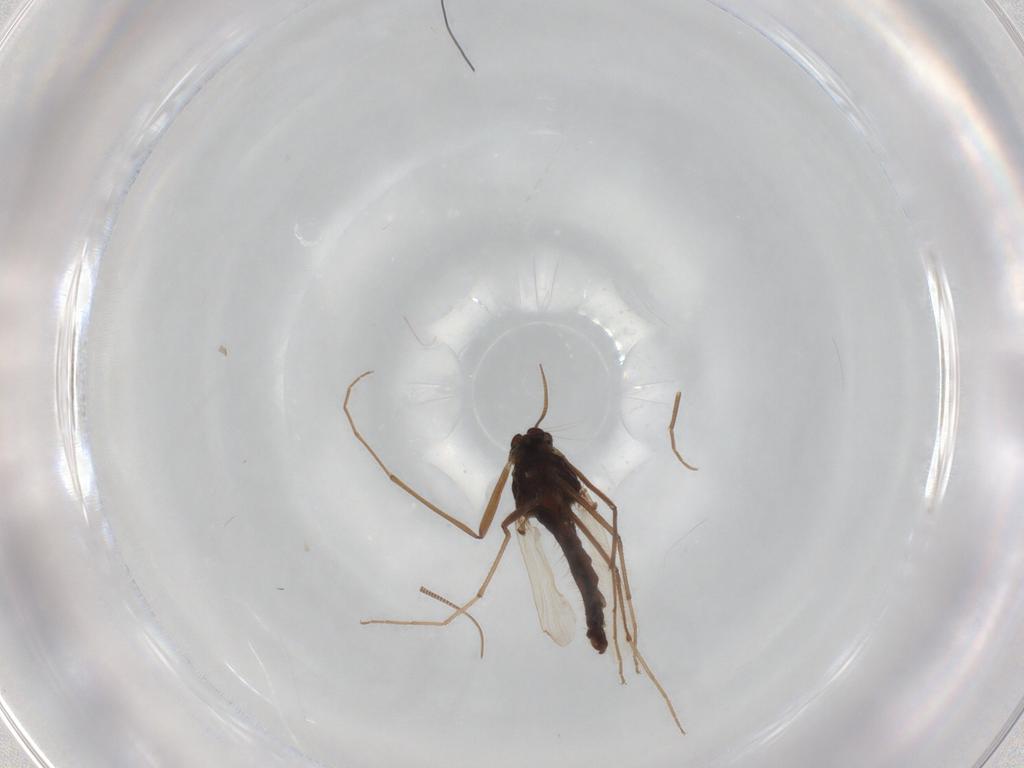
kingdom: Animalia
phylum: Arthropoda
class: Insecta
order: Diptera
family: Chironomidae
